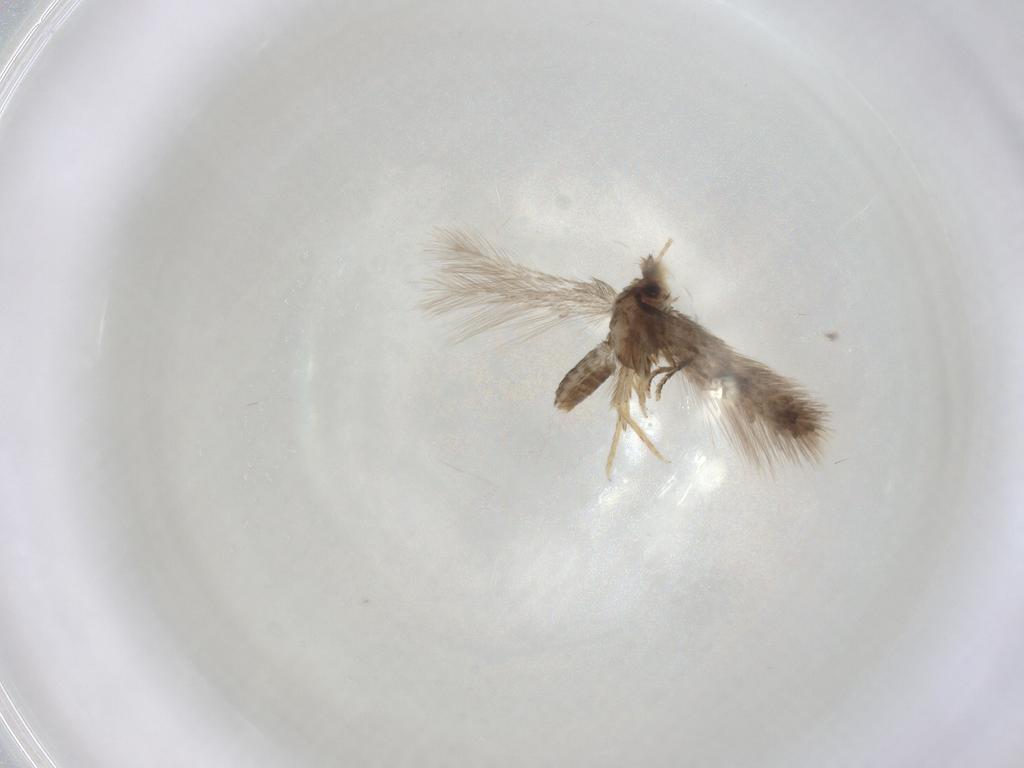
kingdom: Animalia
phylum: Arthropoda
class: Insecta
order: Lepidoptera
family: Nepticulidae
